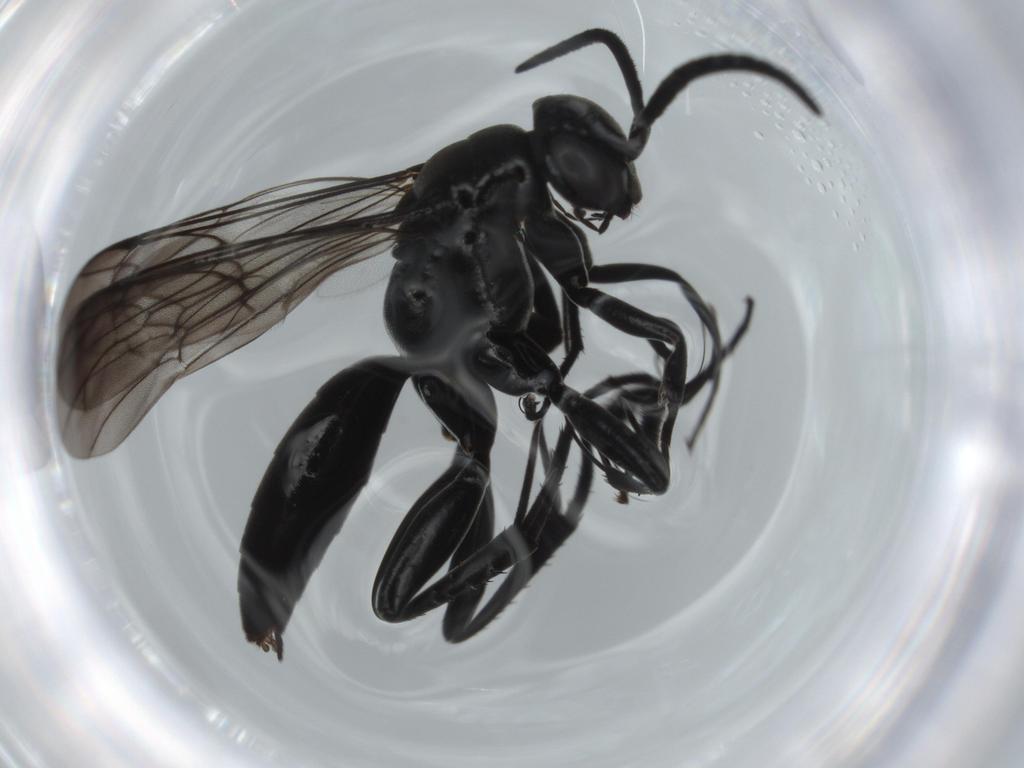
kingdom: Animalia
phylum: Arthropoda
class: Insecta
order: Hymenoptera
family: Pompilidae
